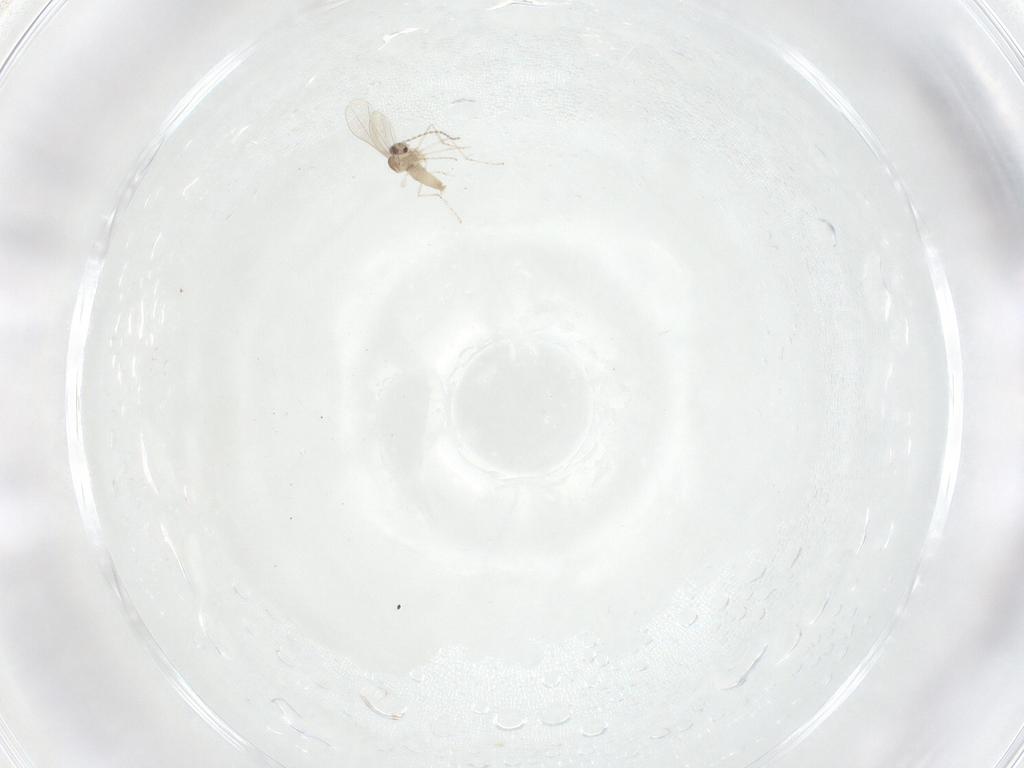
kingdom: Animalia
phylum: Arthropoda
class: Insecta
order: Diptera
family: Cecidomyiidae
